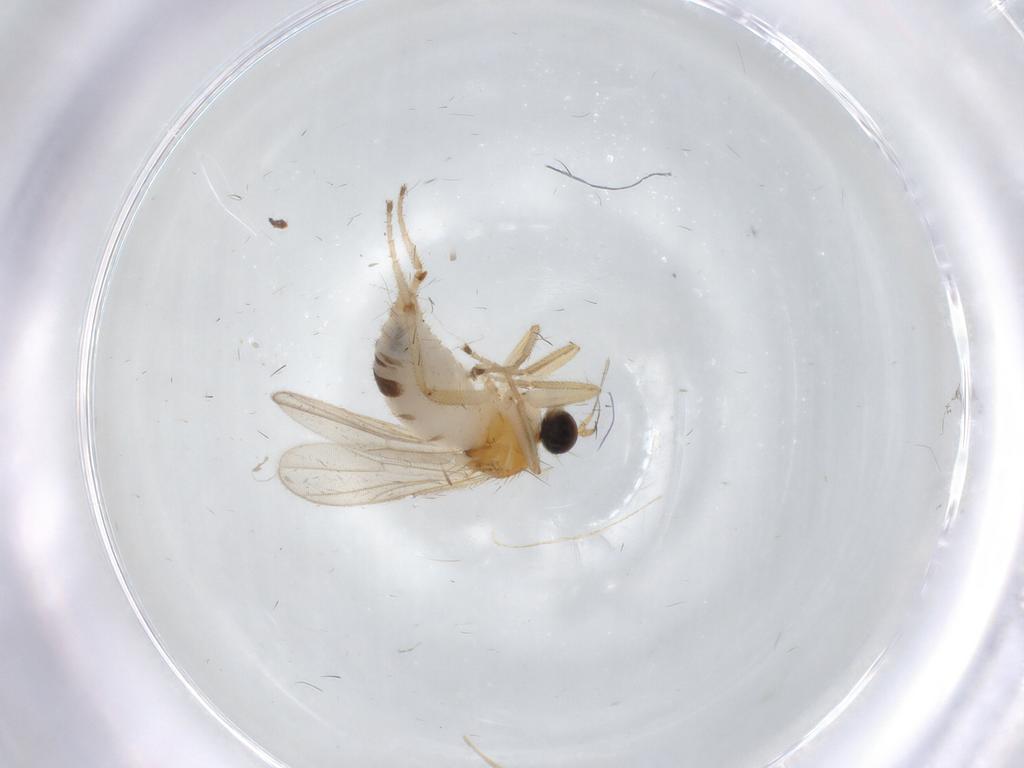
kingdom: Animalia
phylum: Arthropoda
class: Insecta
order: Diptera
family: Hybotidae
